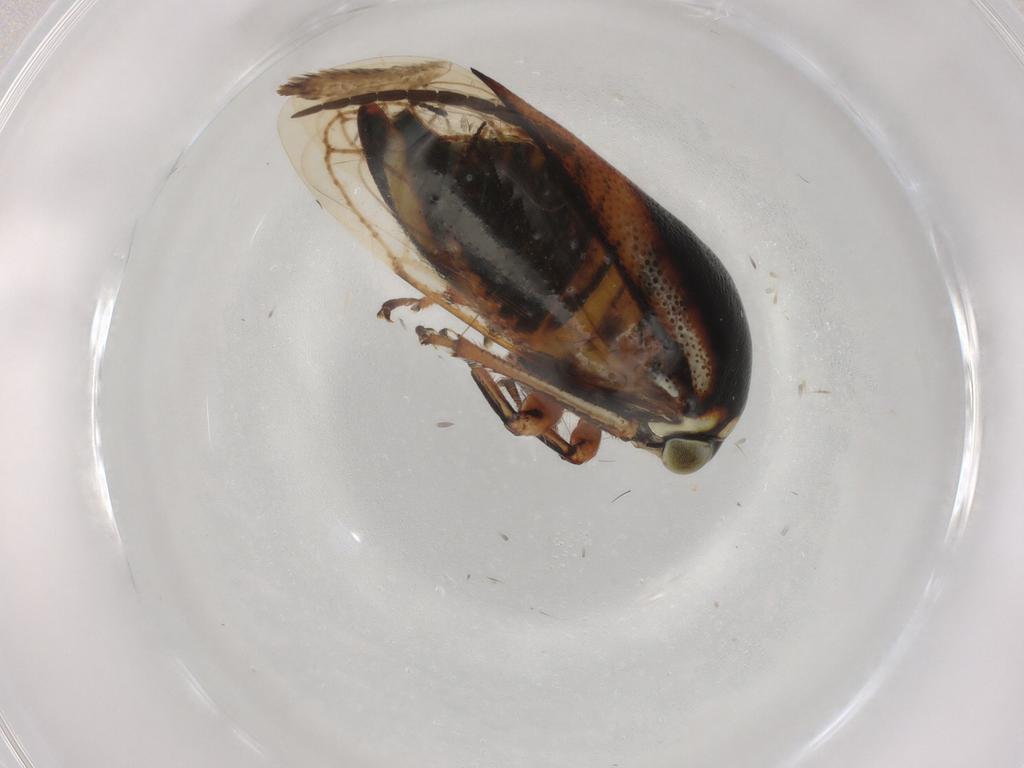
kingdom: Animalia
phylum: Arthropoda
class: Insecta
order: Hemiptera
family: Membracidae
